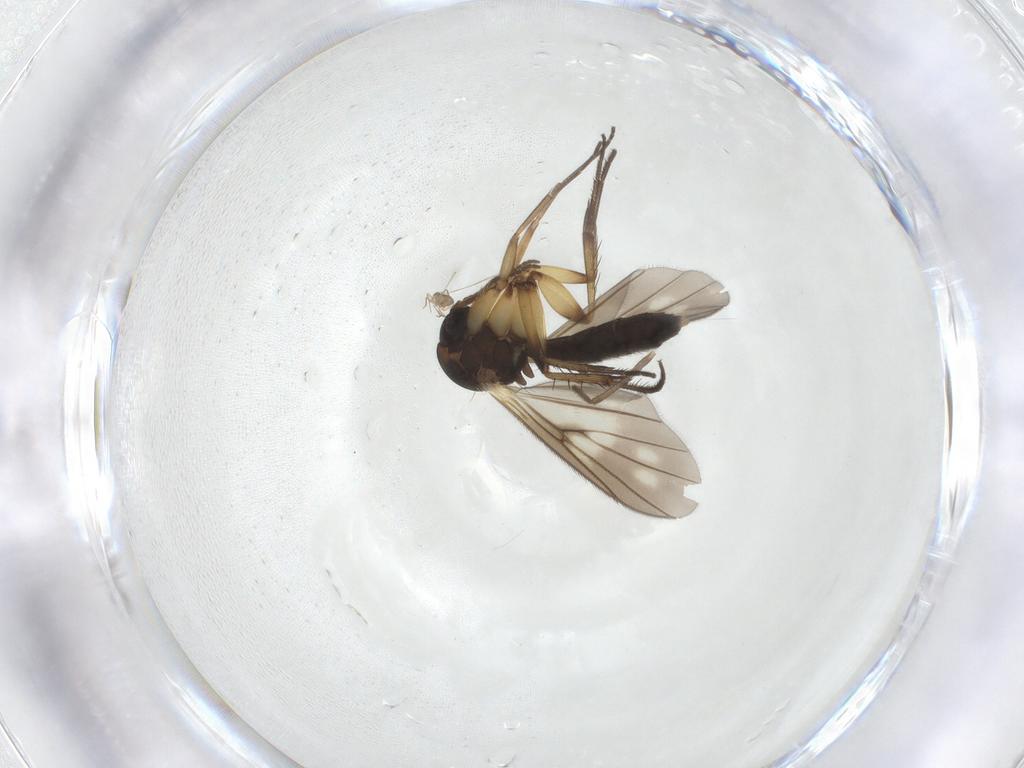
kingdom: Animalia
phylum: Arthropoda
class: Insecta
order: Diptera
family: Mycetophilidae
